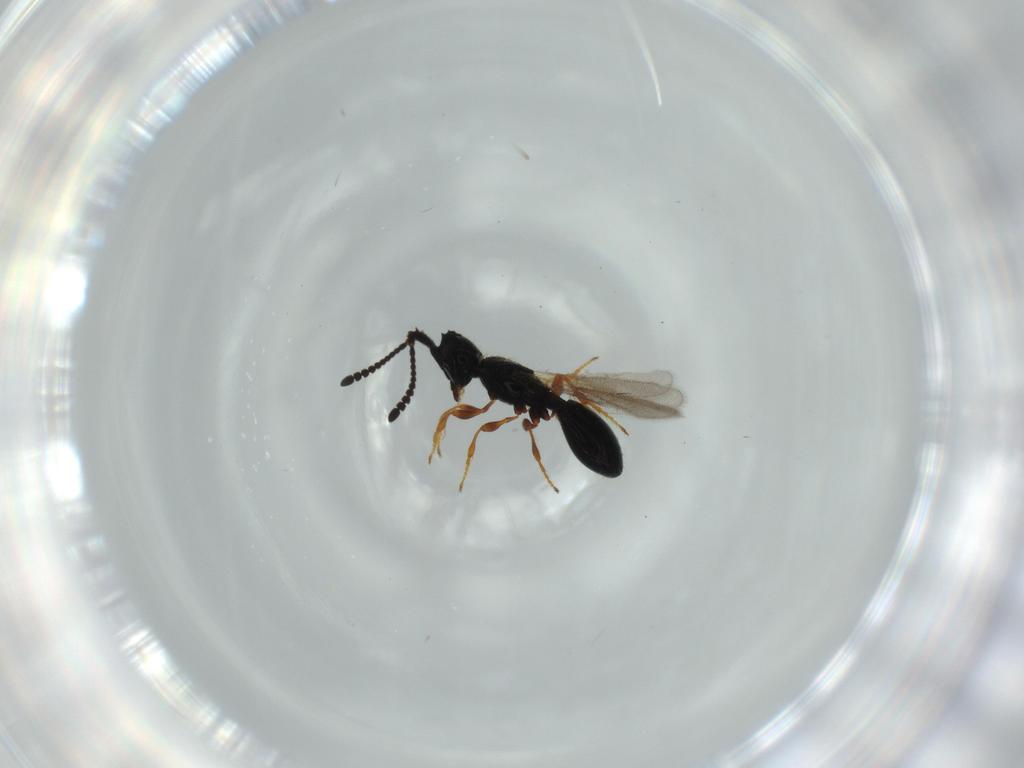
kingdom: Animalia
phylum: Arthropoda
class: Insecta
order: Hymenoptera
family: Diapriidae
